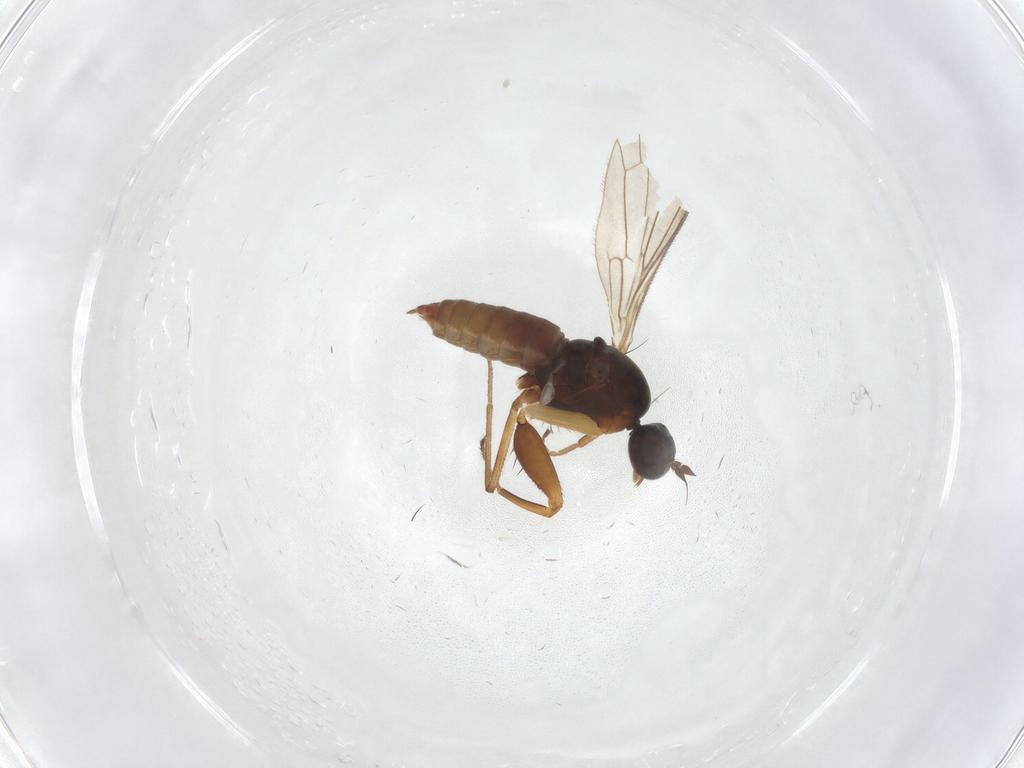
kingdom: Animalia
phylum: Arthropoda
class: Insecta
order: Diptera
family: Empididae
